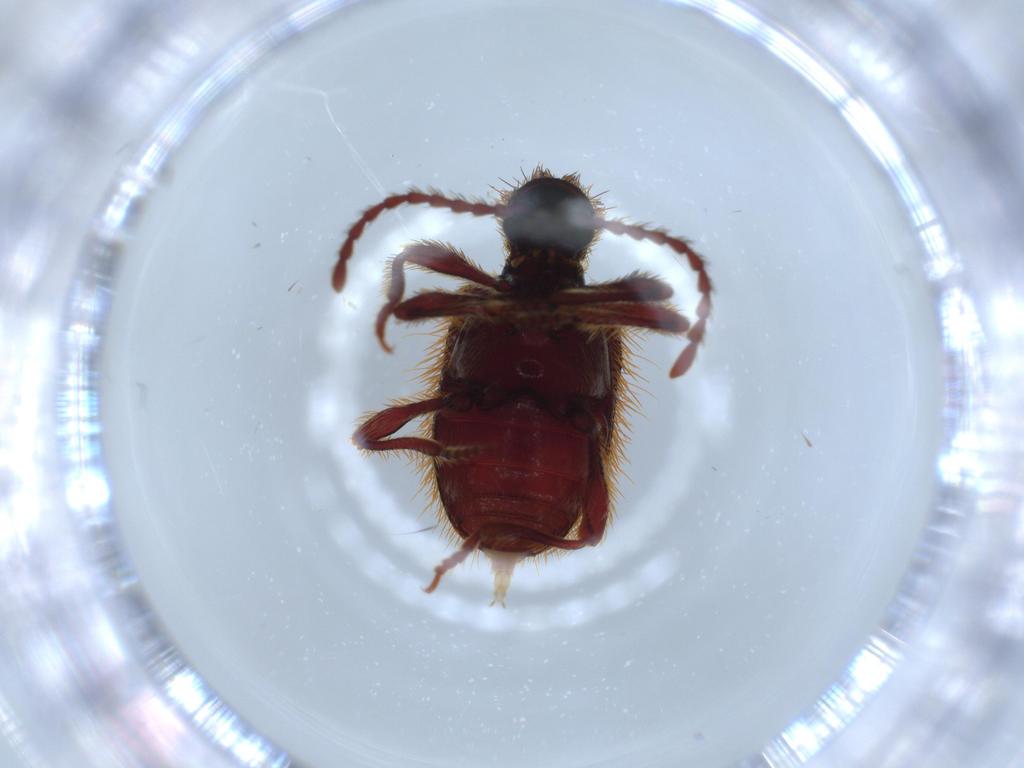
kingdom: Animalia
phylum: Arthropoda
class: Insecta
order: Coleoptera
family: Ptinidae
